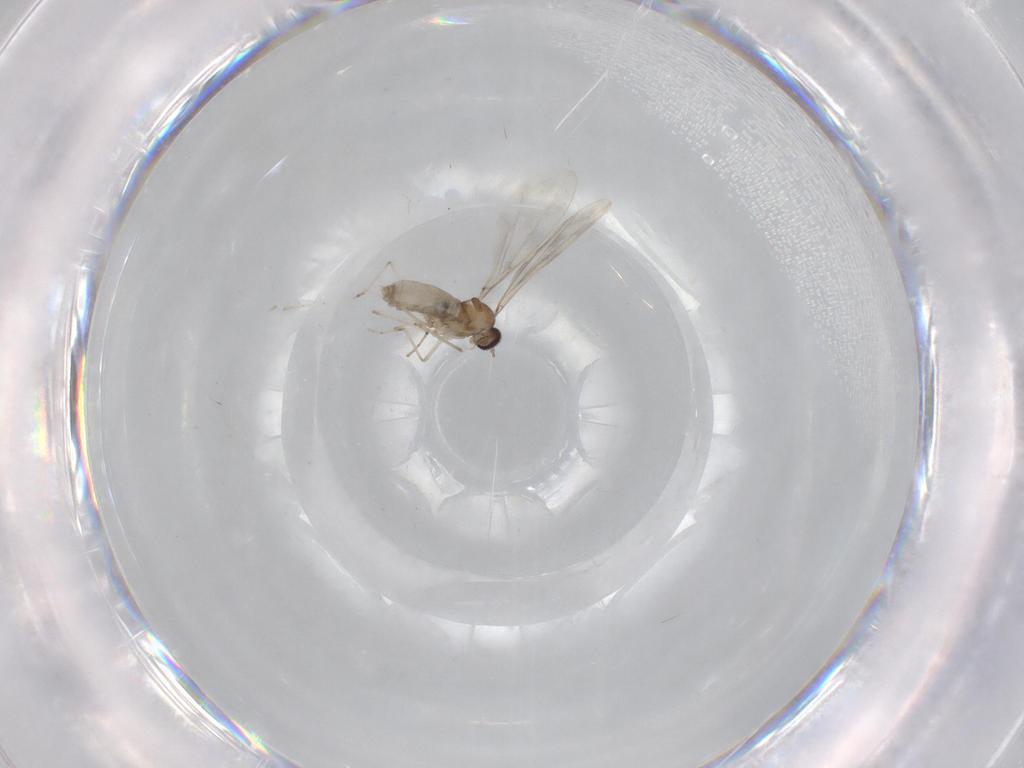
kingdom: Animalia
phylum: Arthropoda
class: Insecta
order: Diptera
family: Cecidomyiidae
